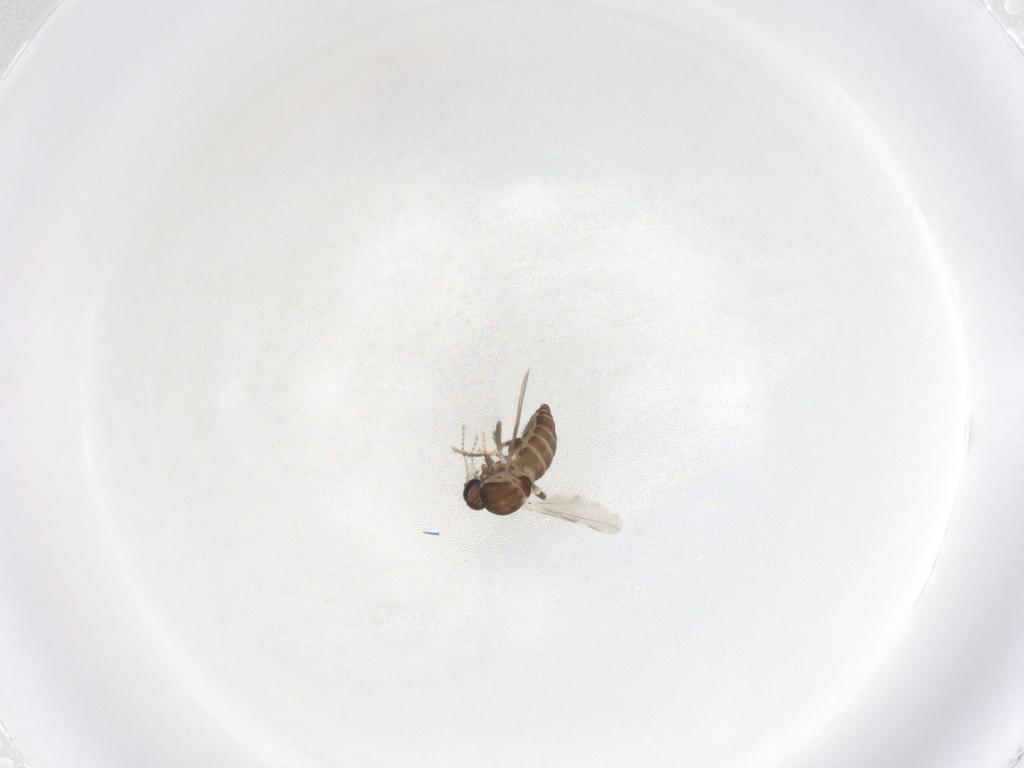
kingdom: Animalia
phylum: Arthropoda
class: Insecta
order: Diptera
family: Ceratopogonidae
